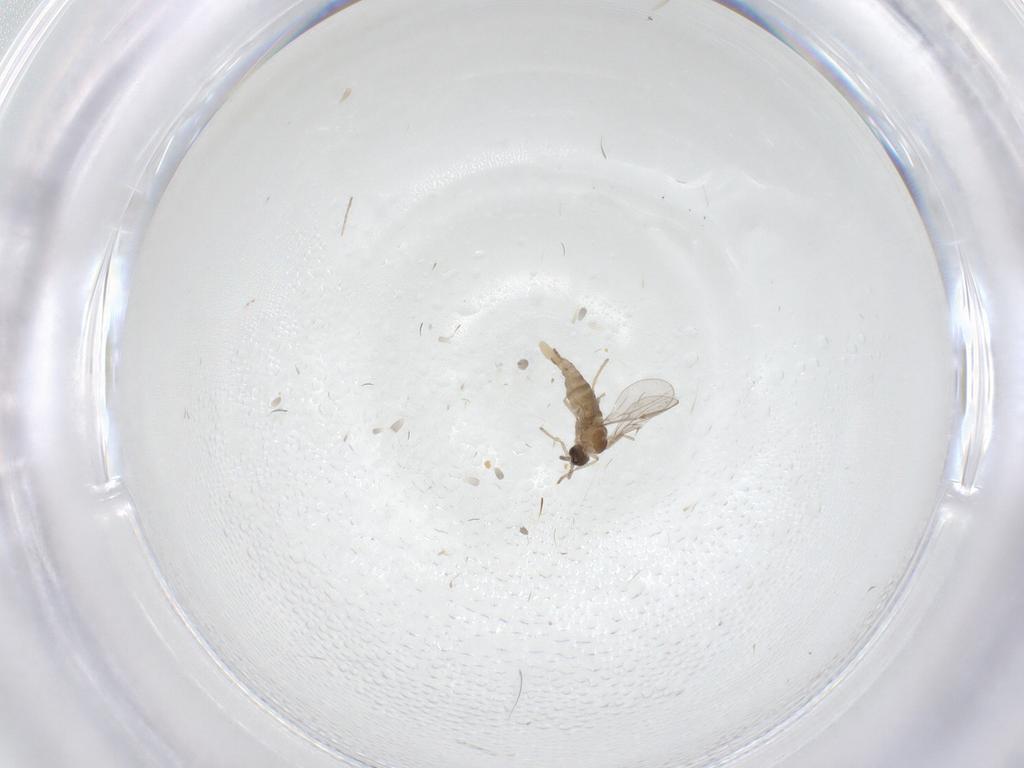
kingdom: Animalia
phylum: Arthropoda
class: Insecta
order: Diptera
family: Cecidomyiidae
